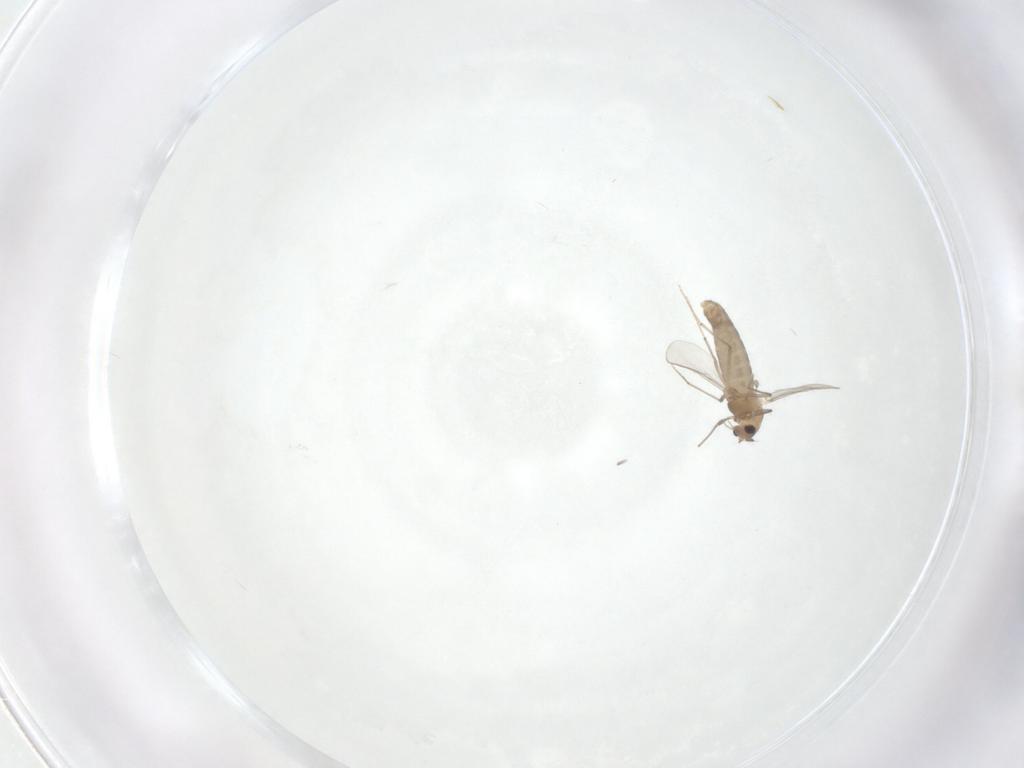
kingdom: Animalia
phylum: Arthropoda
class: Insecta
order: Diptera
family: Chironomidae
